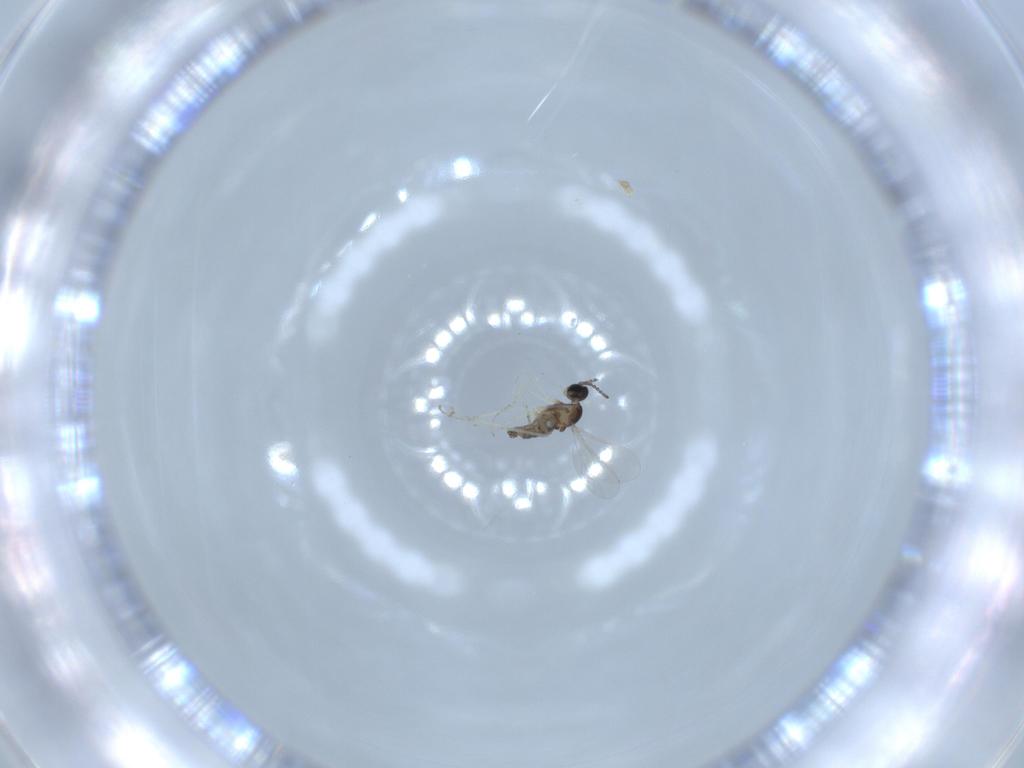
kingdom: Animalia
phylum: Arthropoda
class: Insecta
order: Diptera
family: Cecidomyiidae
